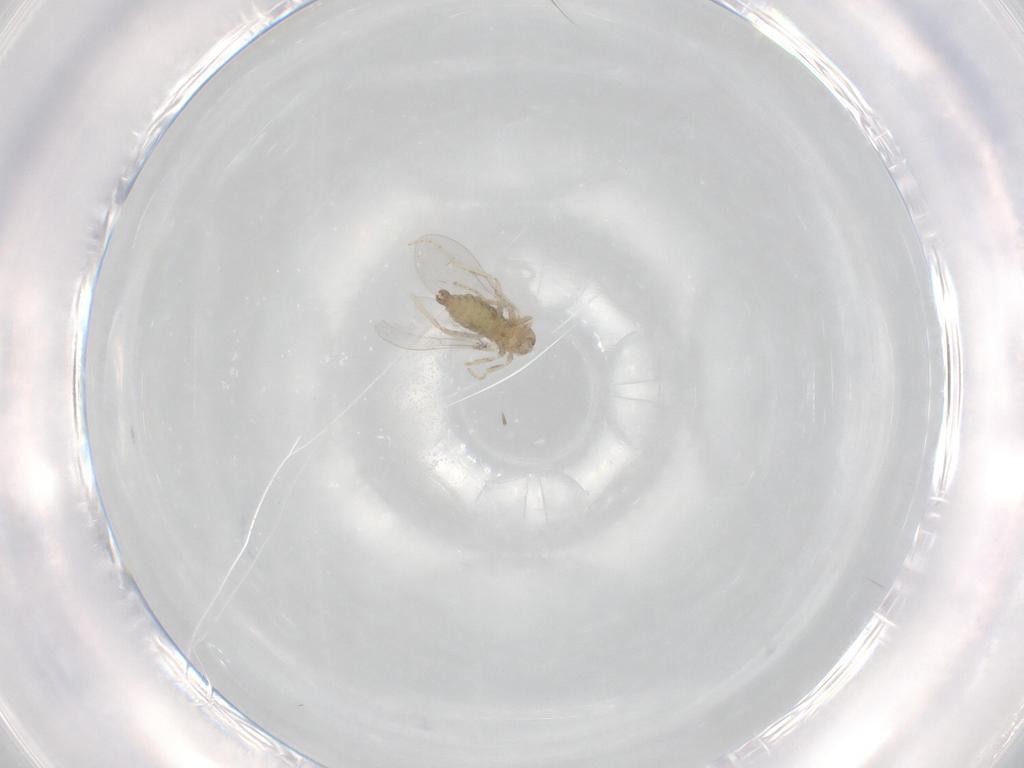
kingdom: Animalia
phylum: Arthropoda
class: Insecta
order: Diptera
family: Cecidomyiidae
